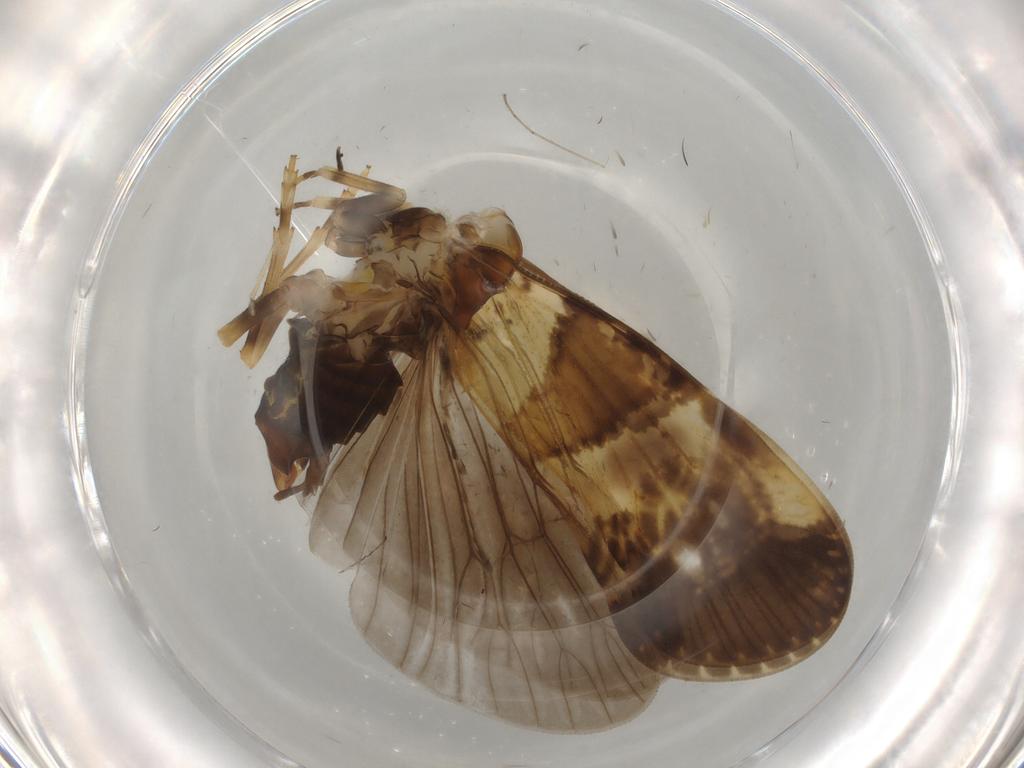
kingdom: Animalia
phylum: Arthropoda
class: Insecta
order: Hemiptera
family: Cixiidae
